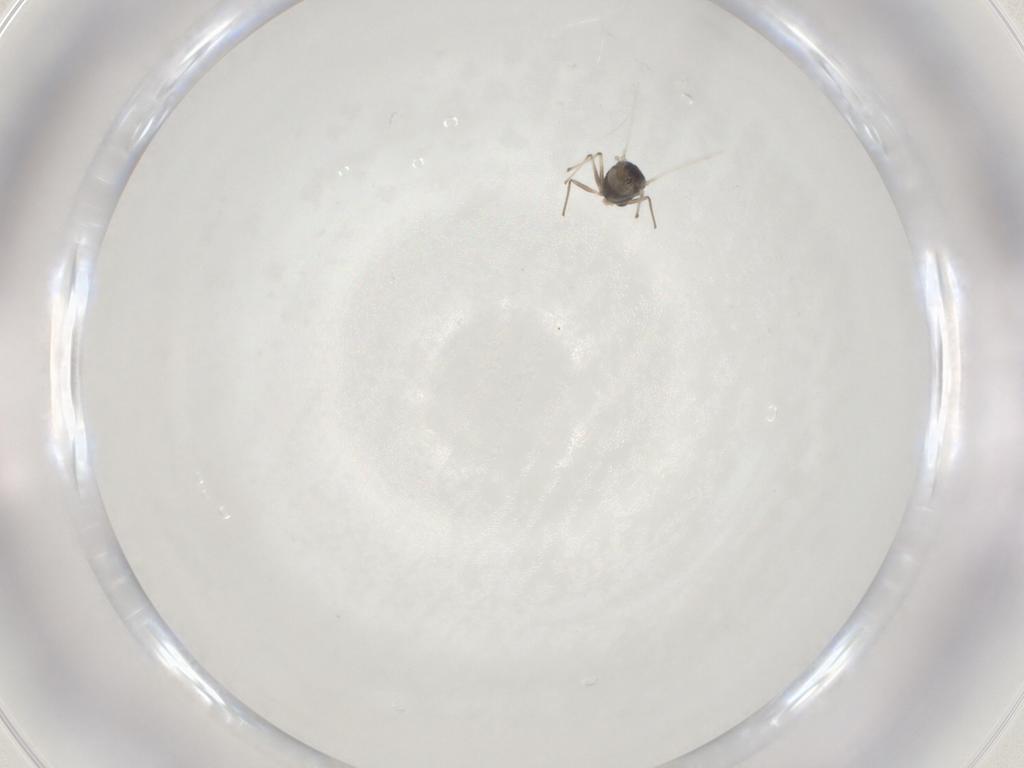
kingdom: Animalia
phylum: Arthropoda
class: Insecta
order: Diptera
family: Chironomidae
